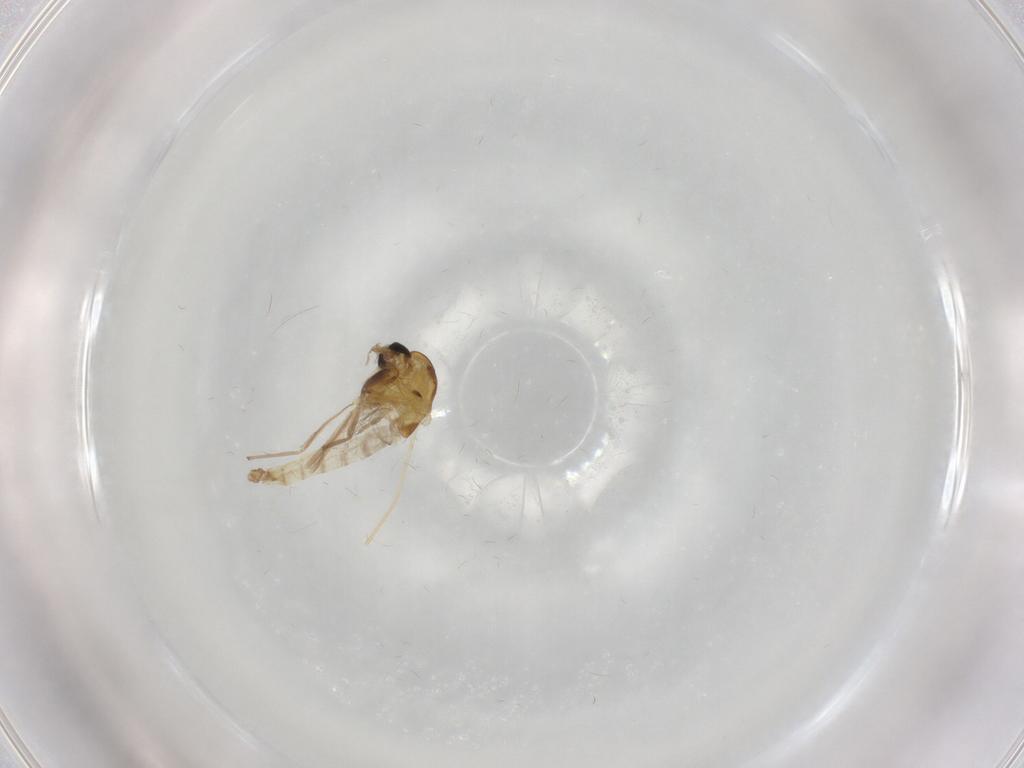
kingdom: Animalia
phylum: Arthropoda
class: Insecta
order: Diptera
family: Chironomidae
